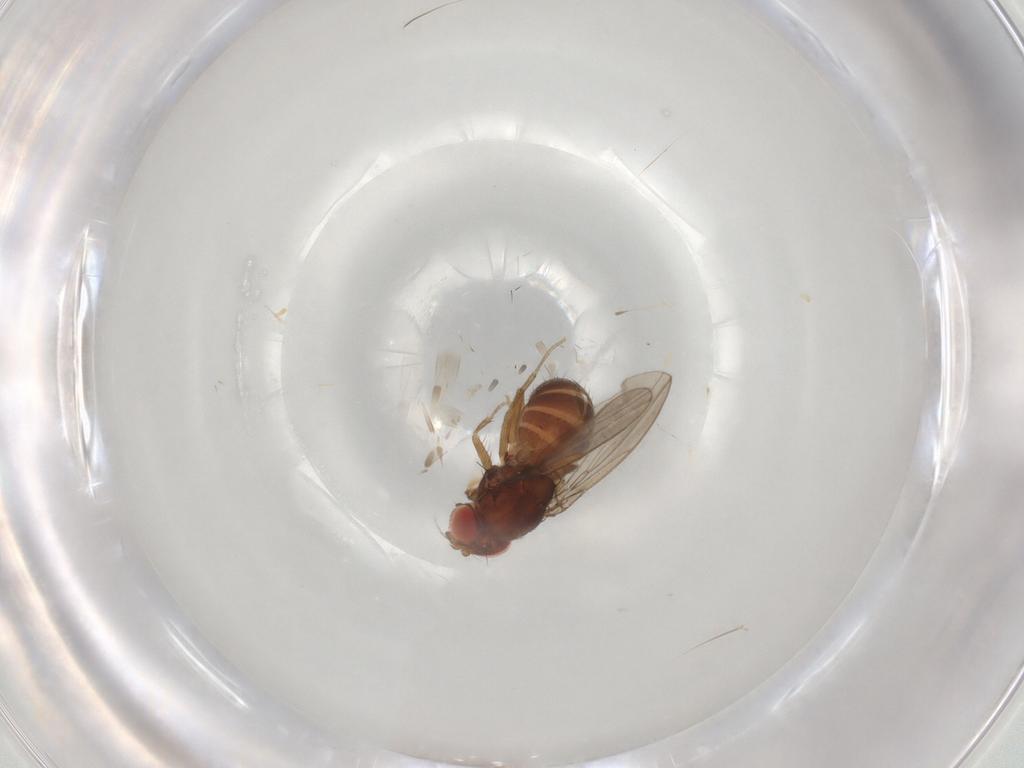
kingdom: Animalia
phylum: Arthropoda
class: Insecta
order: Diptera
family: Drosophilidae
